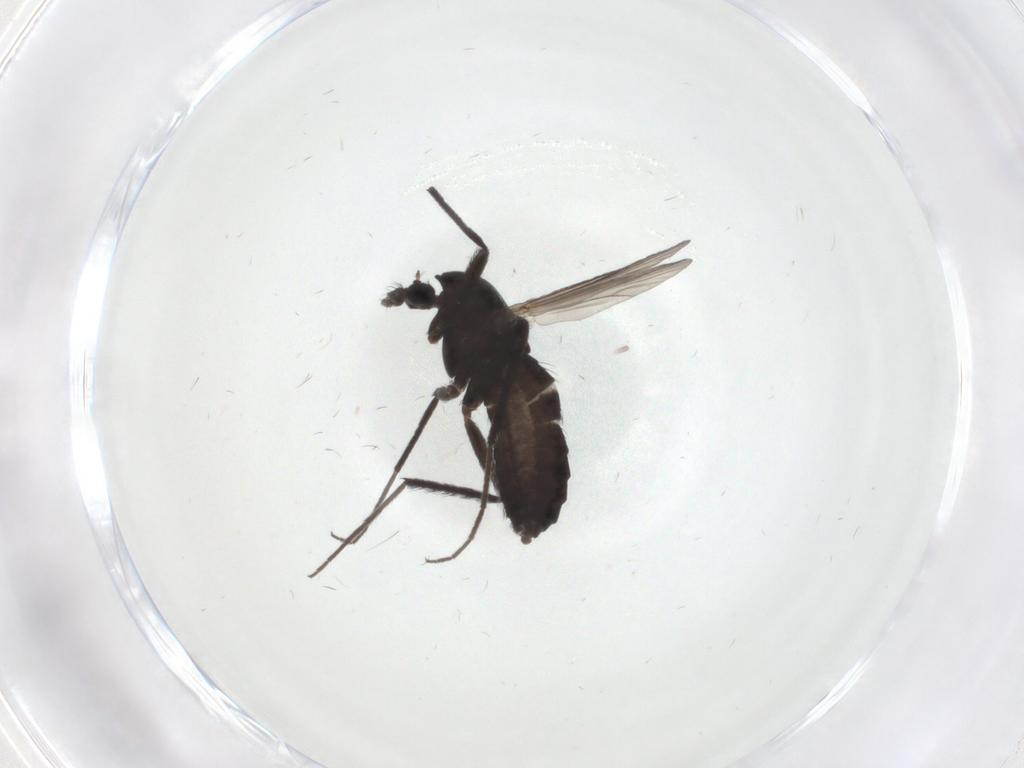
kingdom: Animalia
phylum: Arthropoda
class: Insecta
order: Diptera
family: Chironomidae
